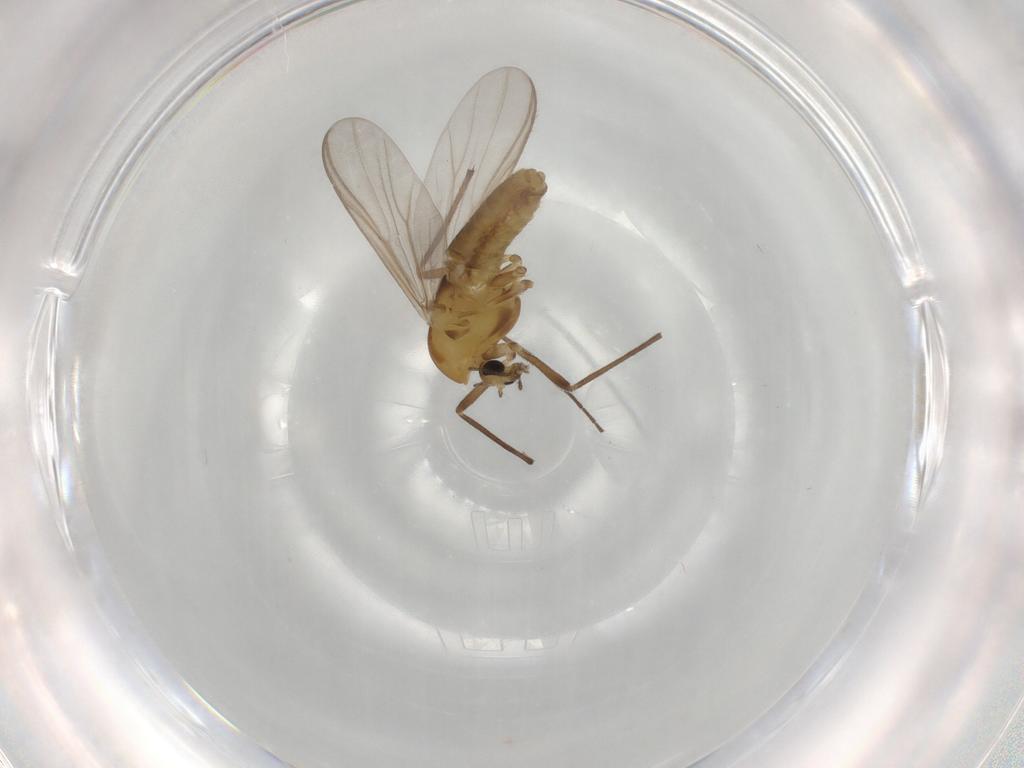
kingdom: Animalia
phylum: Arthropoda
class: Insecta
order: Diptera
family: Chironomidae
